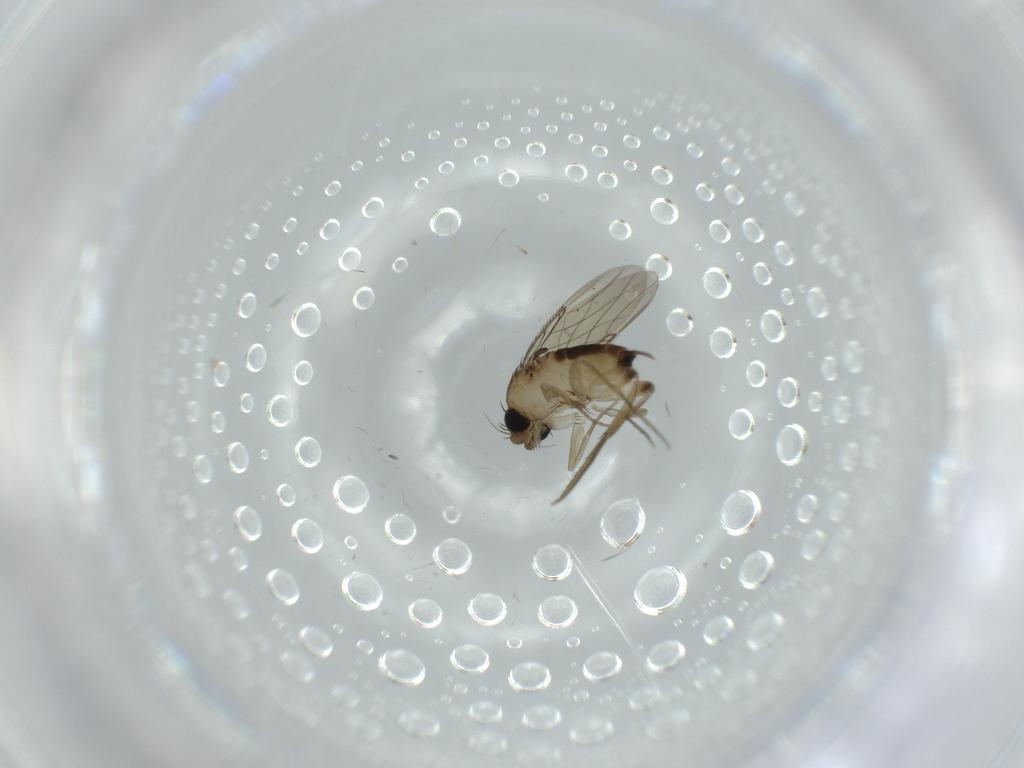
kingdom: Animalia
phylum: Arthropoda
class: Insecta
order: Diptera
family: Phoridae
